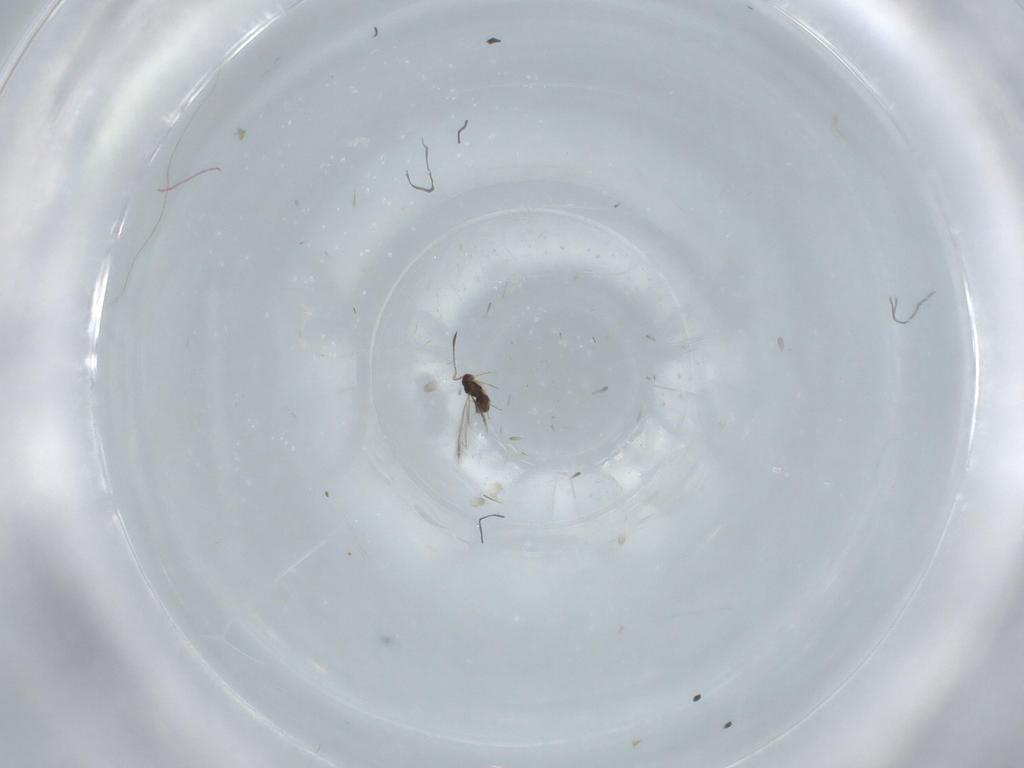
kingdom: Animalia
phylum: Arthropoda
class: Insecta
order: Hymenoptera
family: Mymaridae
